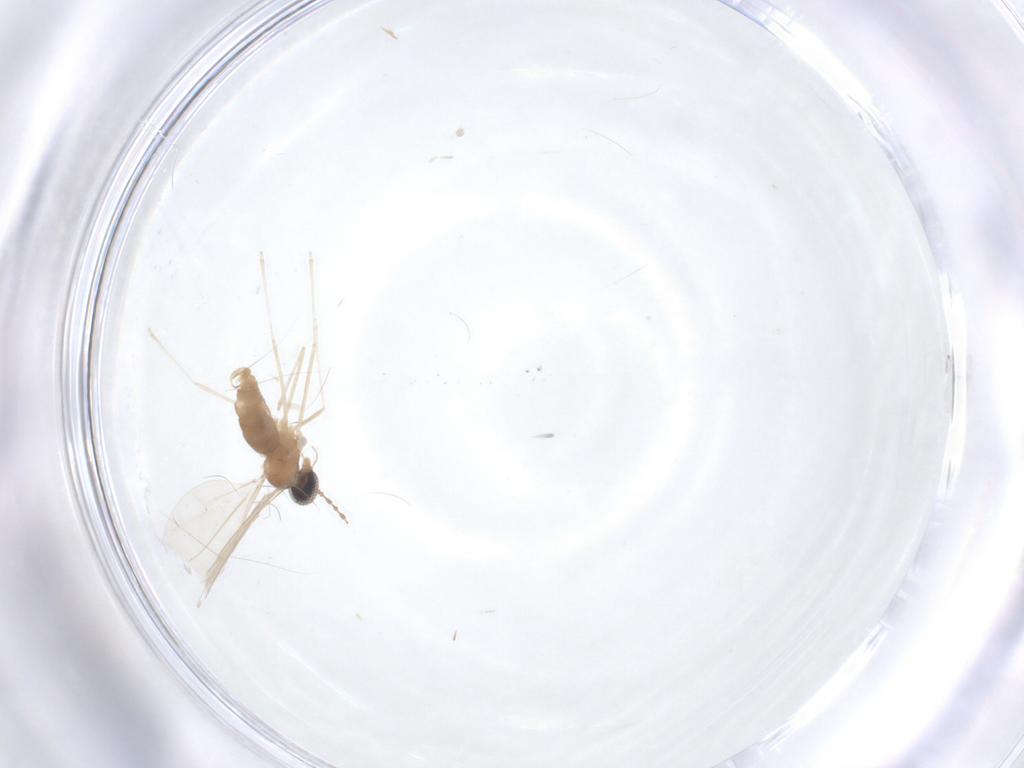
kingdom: Animalia
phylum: Arthropoda
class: Insecta
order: Diptera
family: Cecidomyiidae
